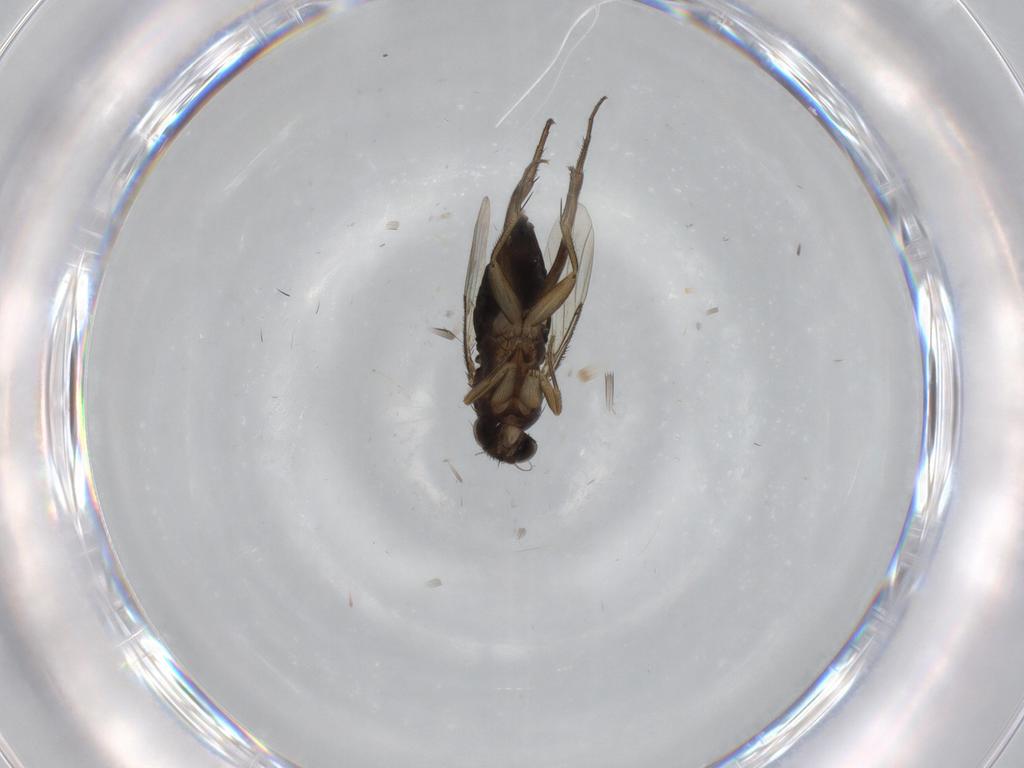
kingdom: Animalia
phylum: Arthropoda
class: Insecta
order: Diptera
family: Phoridae
